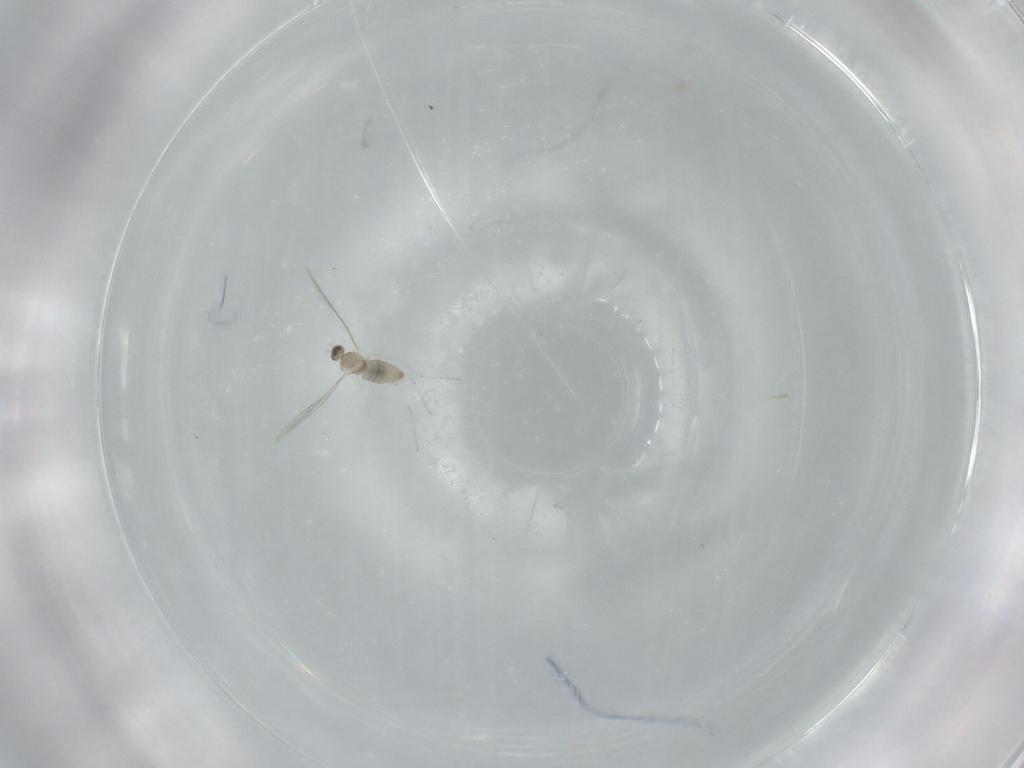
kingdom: Animalia
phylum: Arthropoda
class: Insecta
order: Diptera
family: Cecidomyiidae
